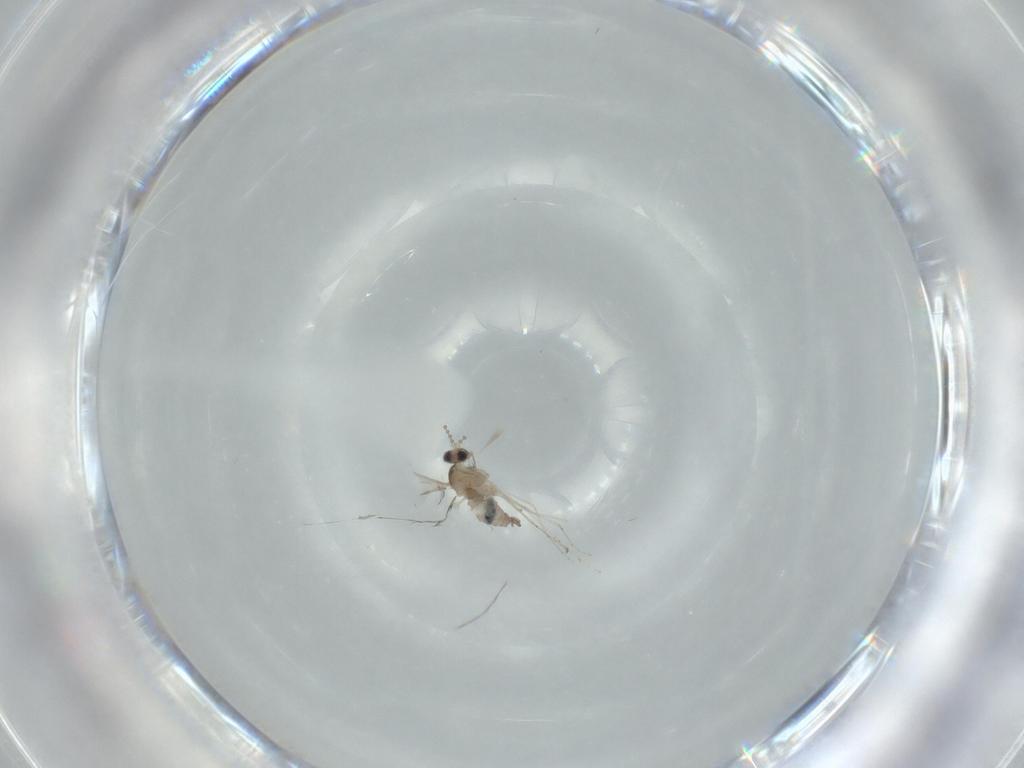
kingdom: Animalia
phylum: Arthropoda
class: Insecta
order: Diptera
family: Cecidomyiidae
